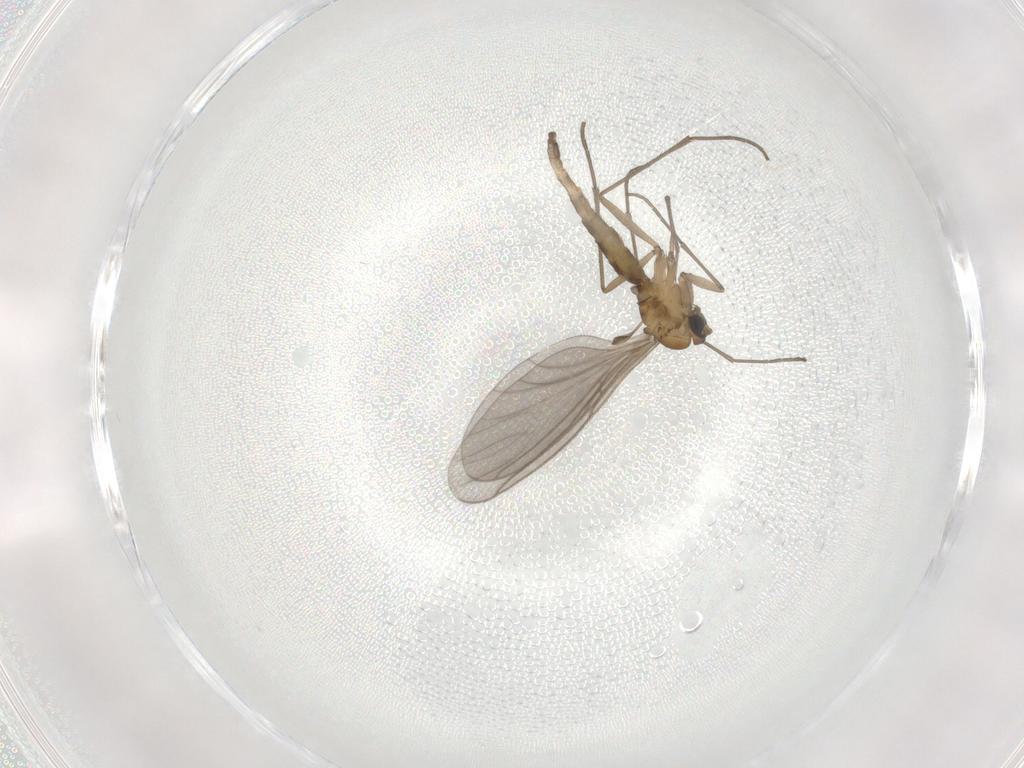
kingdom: Animalia
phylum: Arthropoda
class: Insecta
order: Diptera
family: Sciaridae
